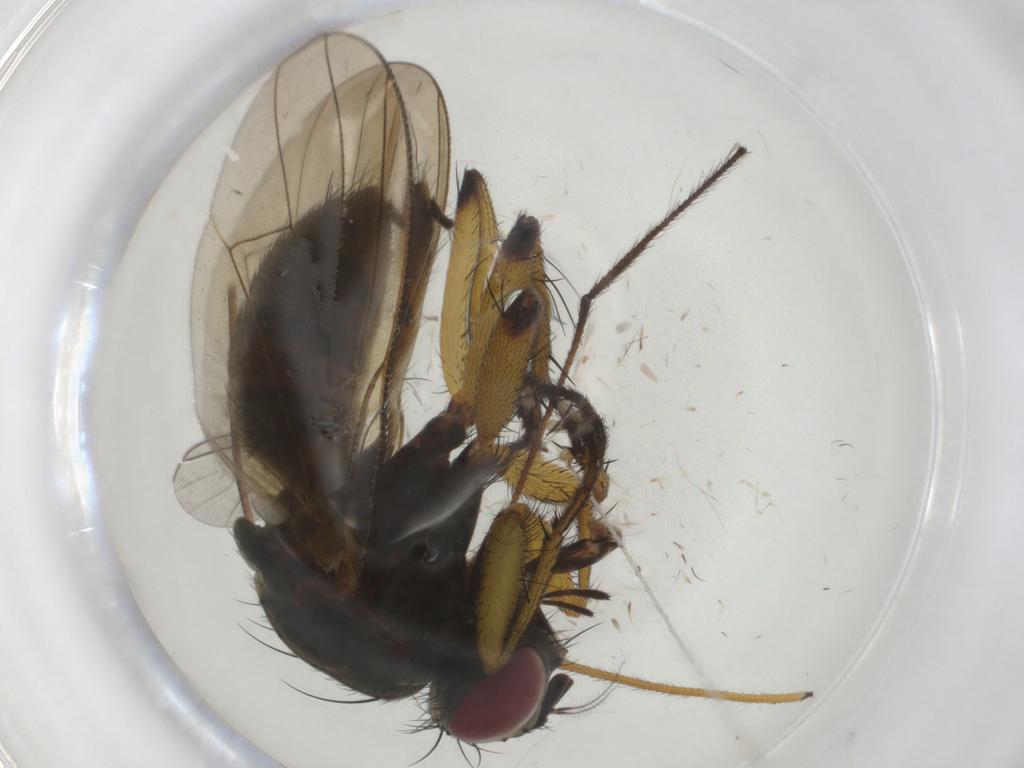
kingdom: Animalia
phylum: Arthropoda
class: Insecta
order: Diptera
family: Muscidae
